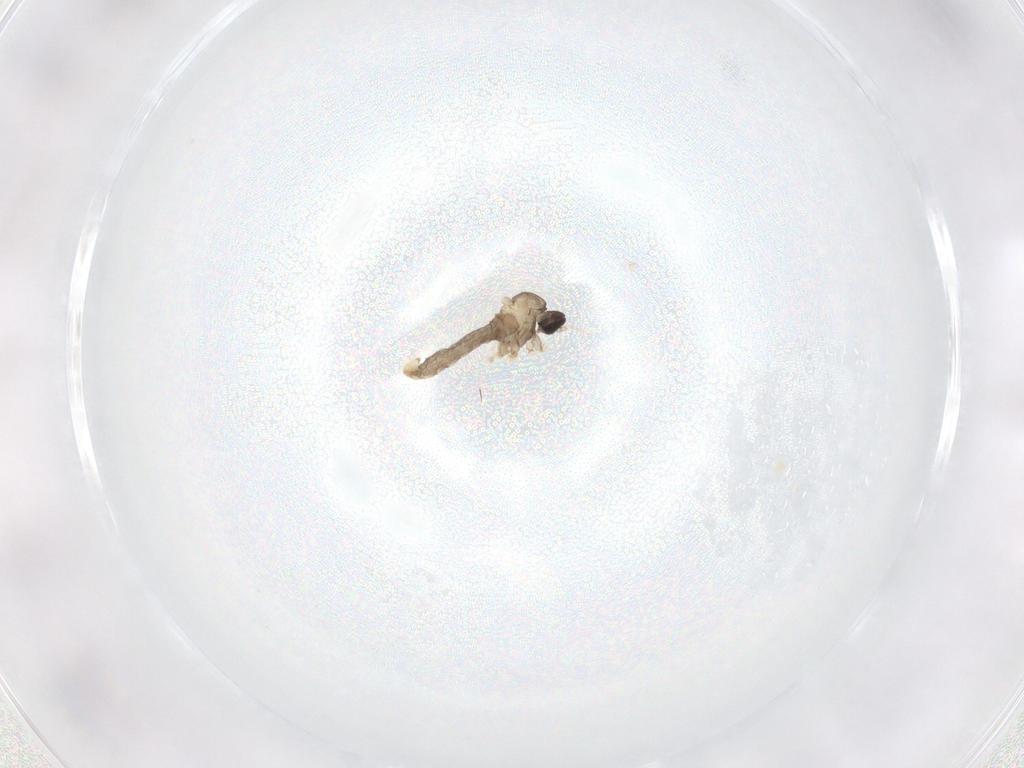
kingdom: Animalia
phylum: Arthropoda
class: Insecta
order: Diptera
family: Cecidomyiidae
